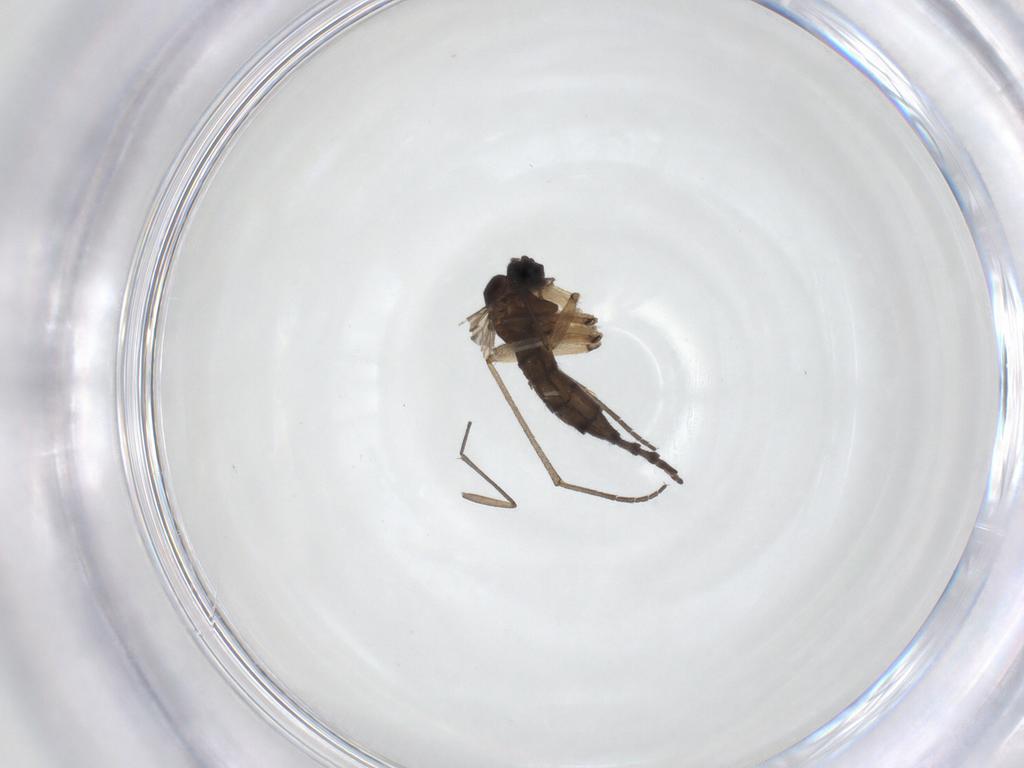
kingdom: Animalia
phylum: Arthropoda
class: Insecta
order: Diptera
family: Sciaridae
